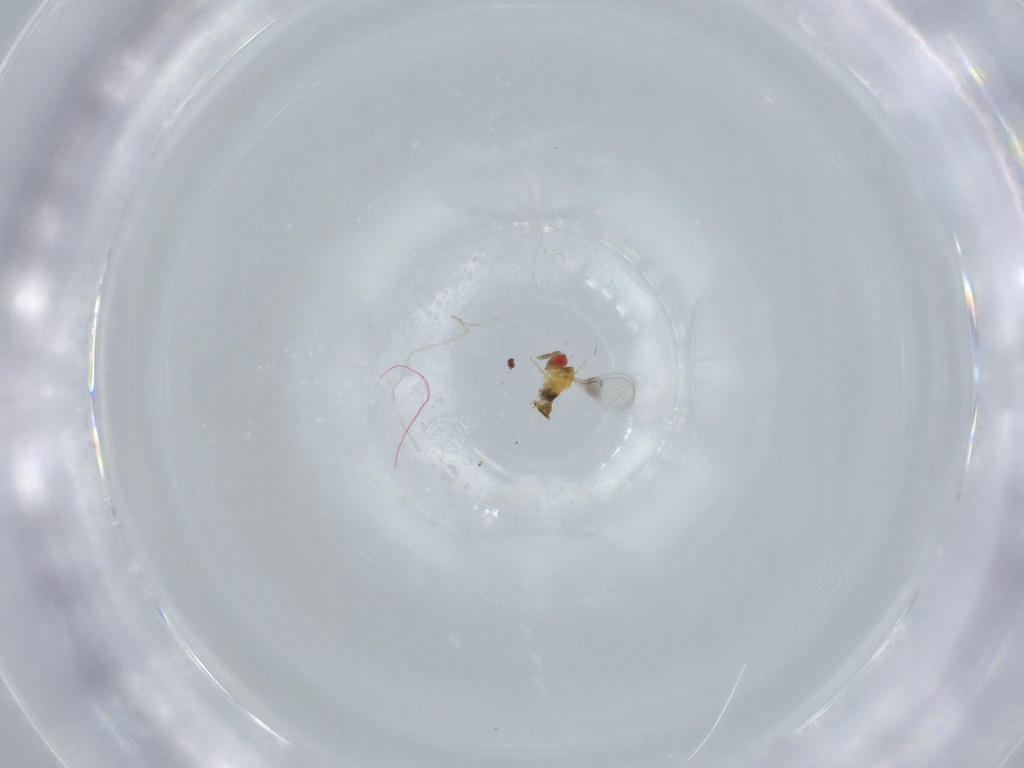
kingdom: Animalia
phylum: Arthropoda
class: Insecta
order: Hymenoptera
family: Trichogrammatidae
